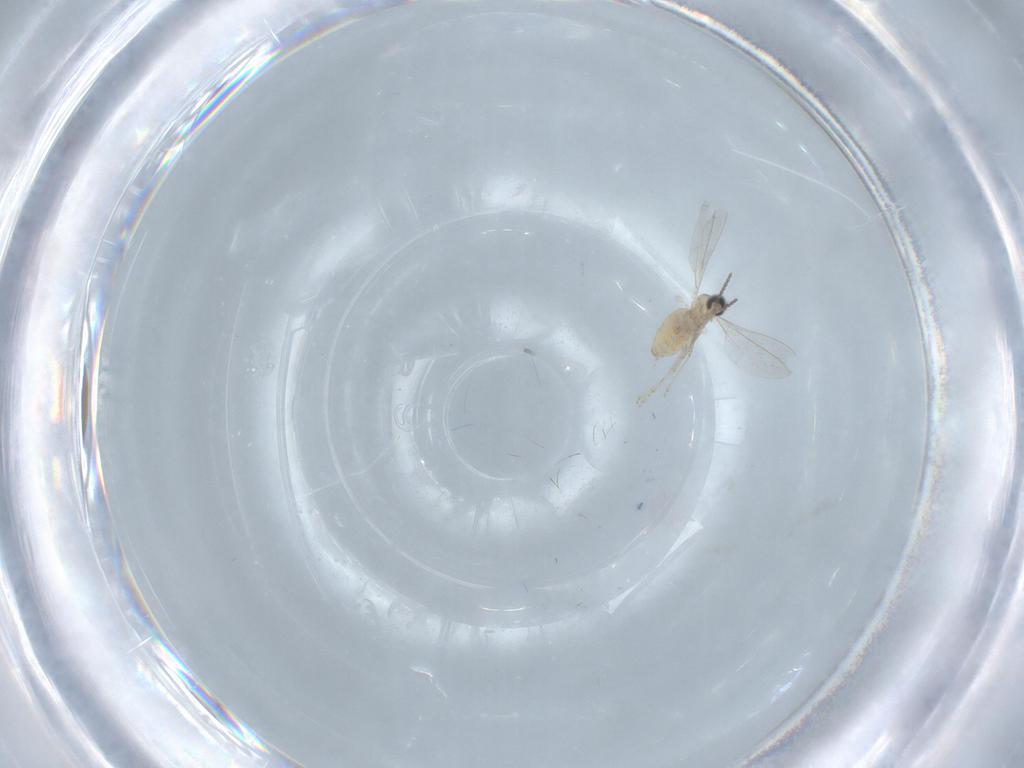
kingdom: Animalia
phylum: Arthropoda
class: Insecta
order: Diptera
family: Cecidomyiidae
